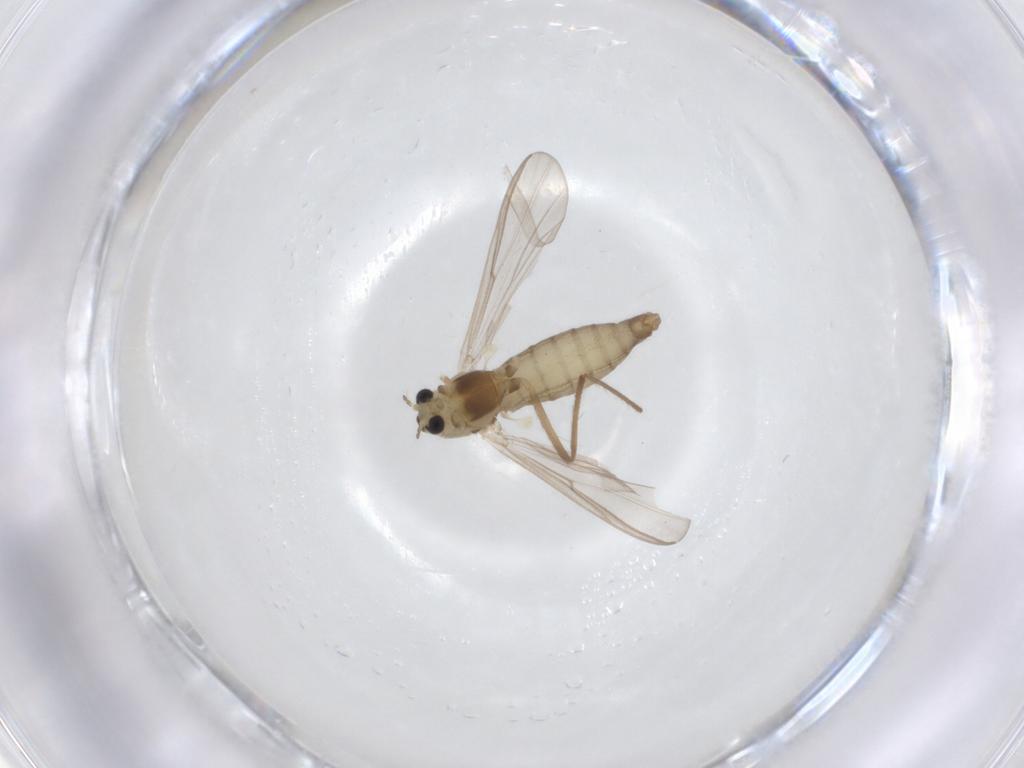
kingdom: Animalia
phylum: Arthropoda
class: Insecta
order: Diptera
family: Chironomidae
